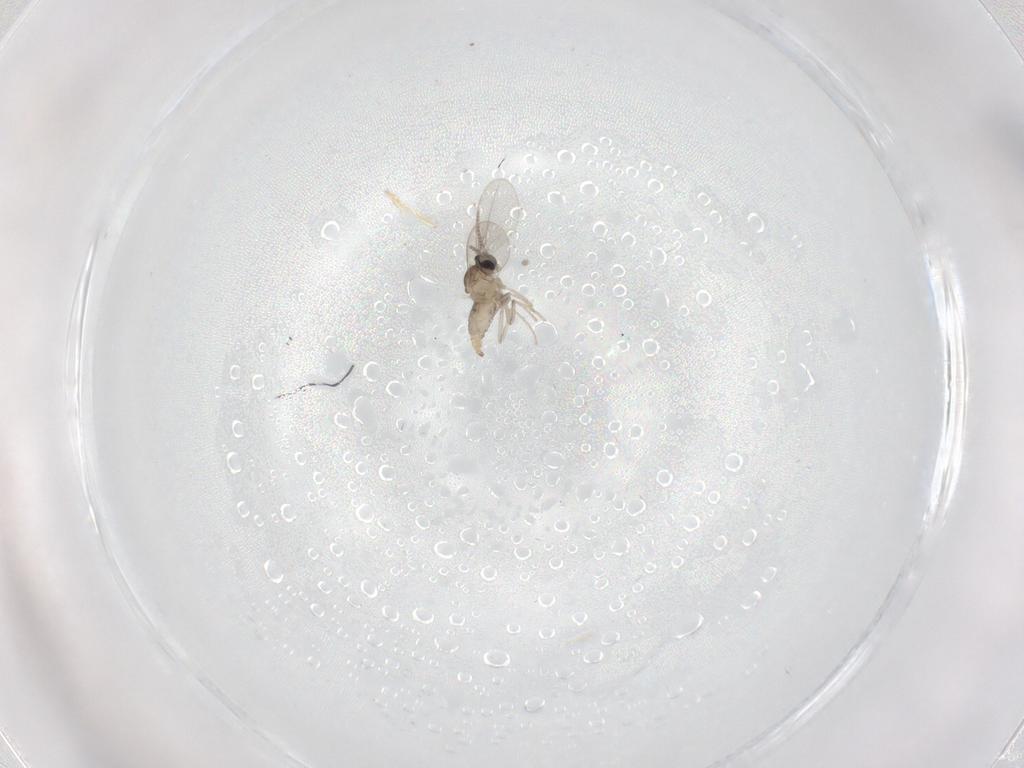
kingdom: Animalia
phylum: Arthropoda
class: Insecta
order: Diptera
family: Cecidomyiidae
